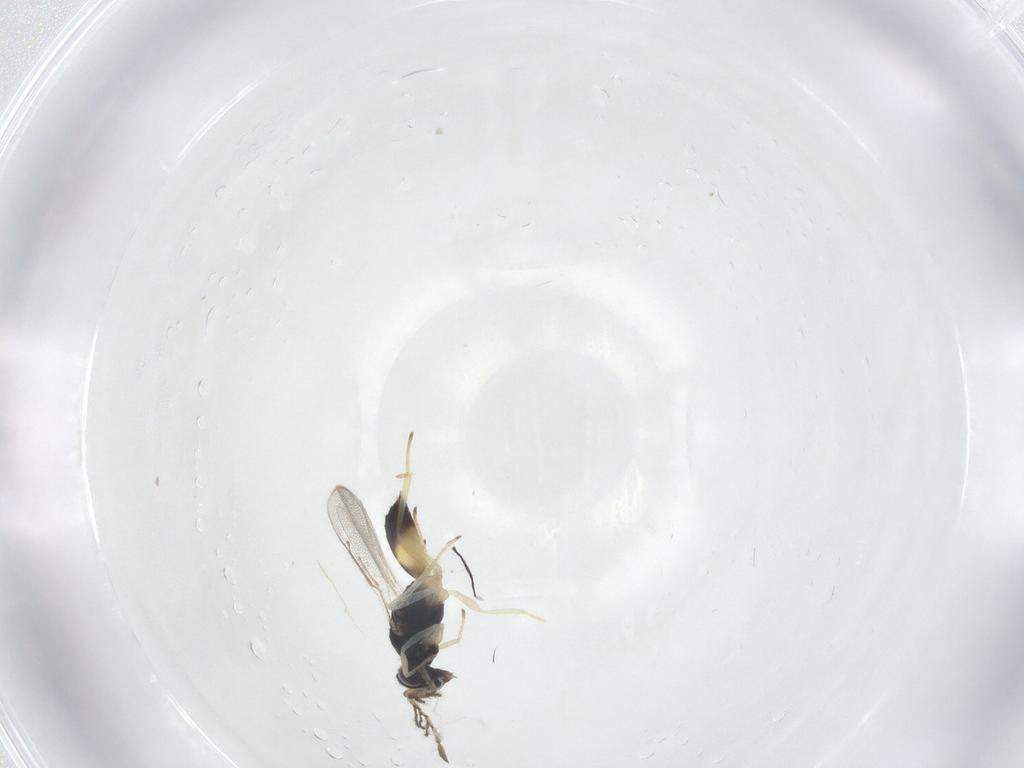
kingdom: Animalia
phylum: Arthropoda
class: Insecta
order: Hymenoptera
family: Eulophidae
